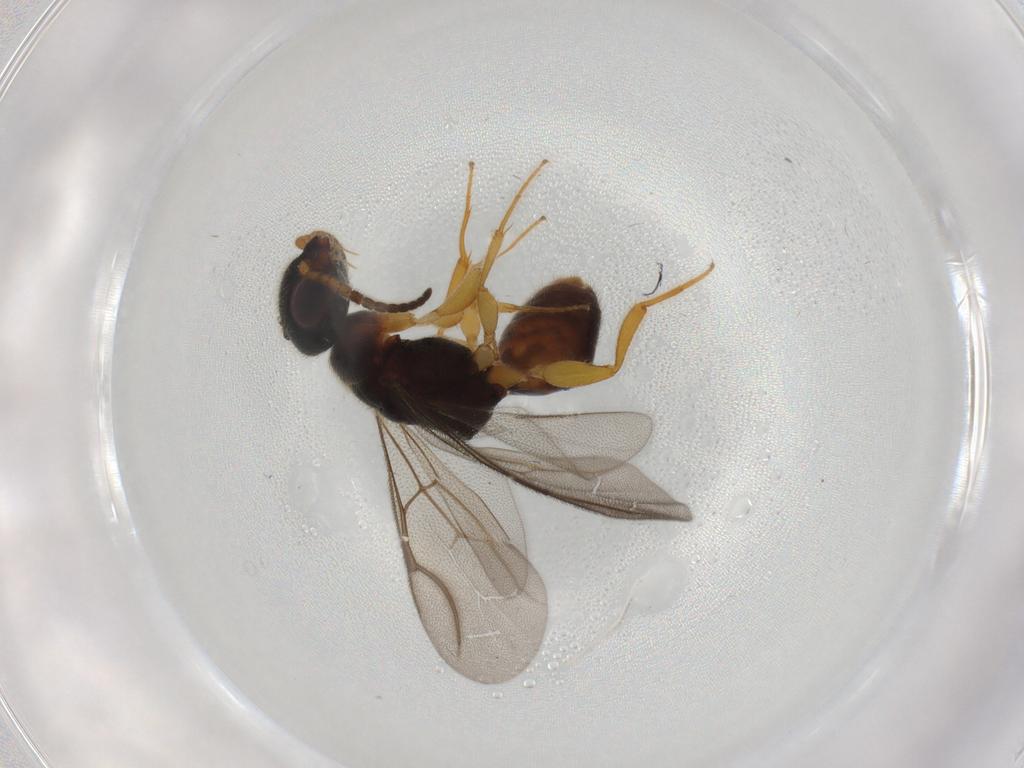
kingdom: Animalia
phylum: Arthropoda
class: Insecta
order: Hymenoptera
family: Bethylidae
